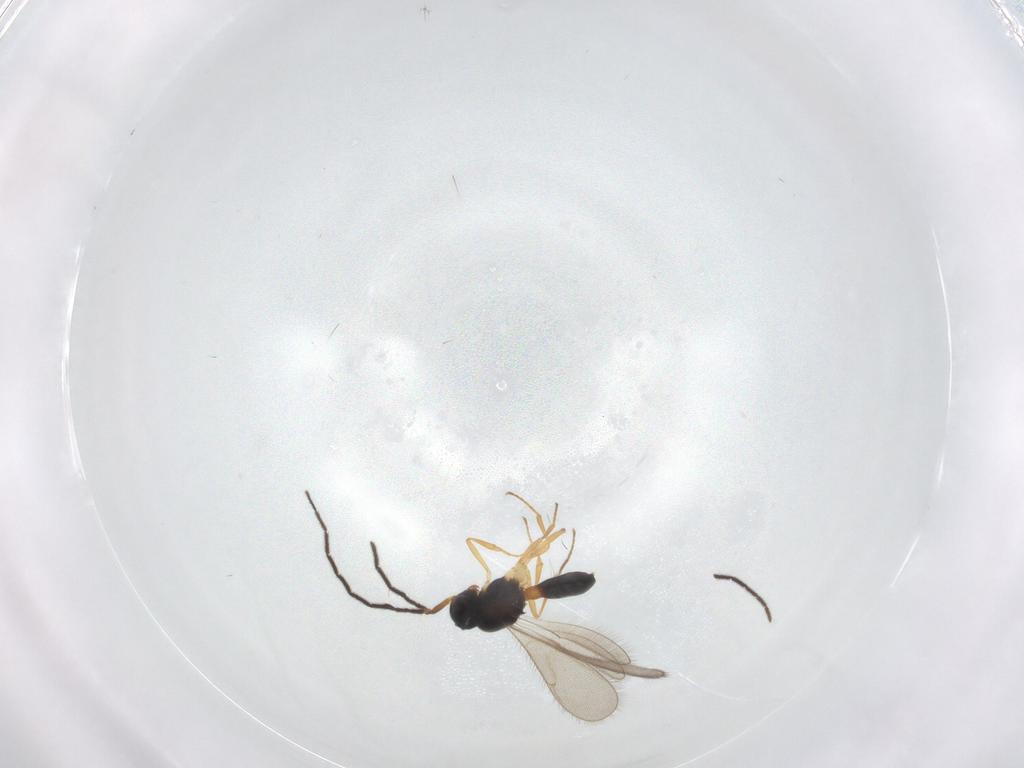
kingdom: Animalia
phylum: Arthropoda
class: Insecta
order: Hymenoptera
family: Scelionidae
